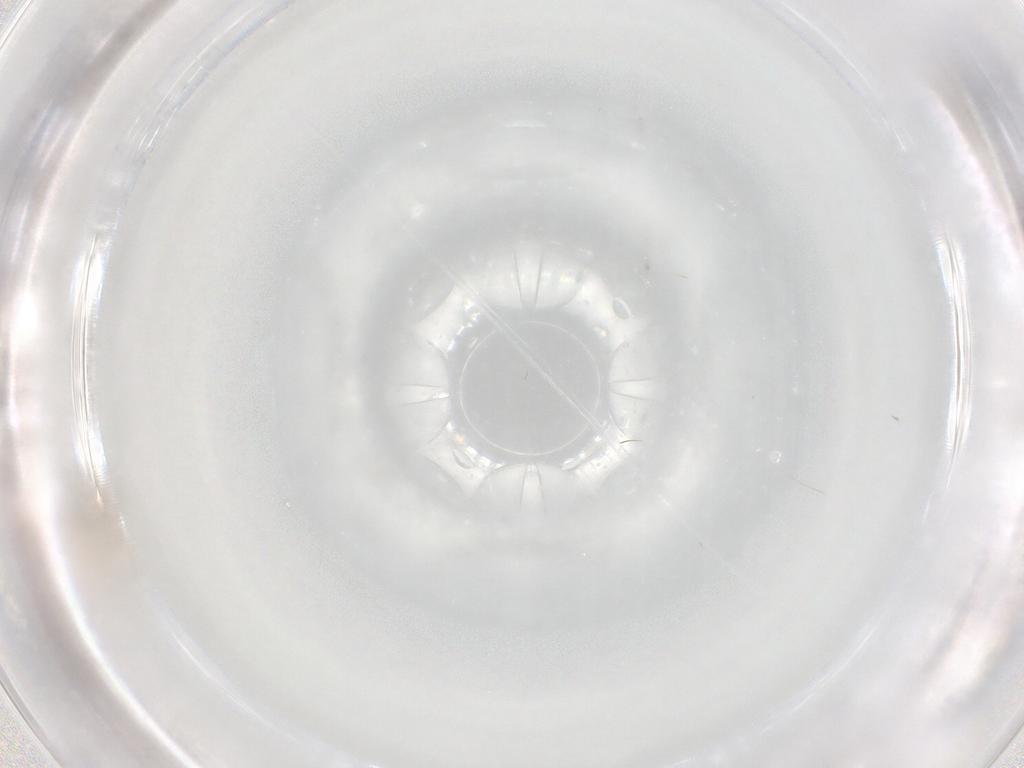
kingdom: Animalia
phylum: Arthropoda
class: Insecta
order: Diptera
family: Cecidomyiidae
